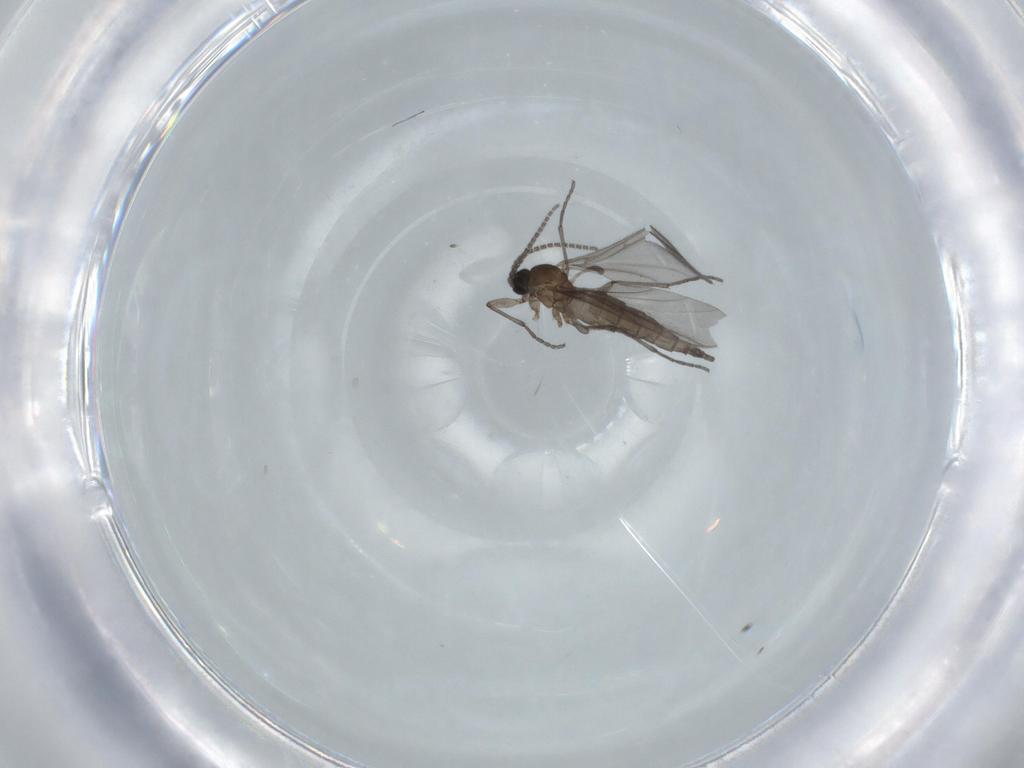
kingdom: Animalia
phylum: Arthropoda
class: Insecta
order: Diptera
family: Sciaridae
